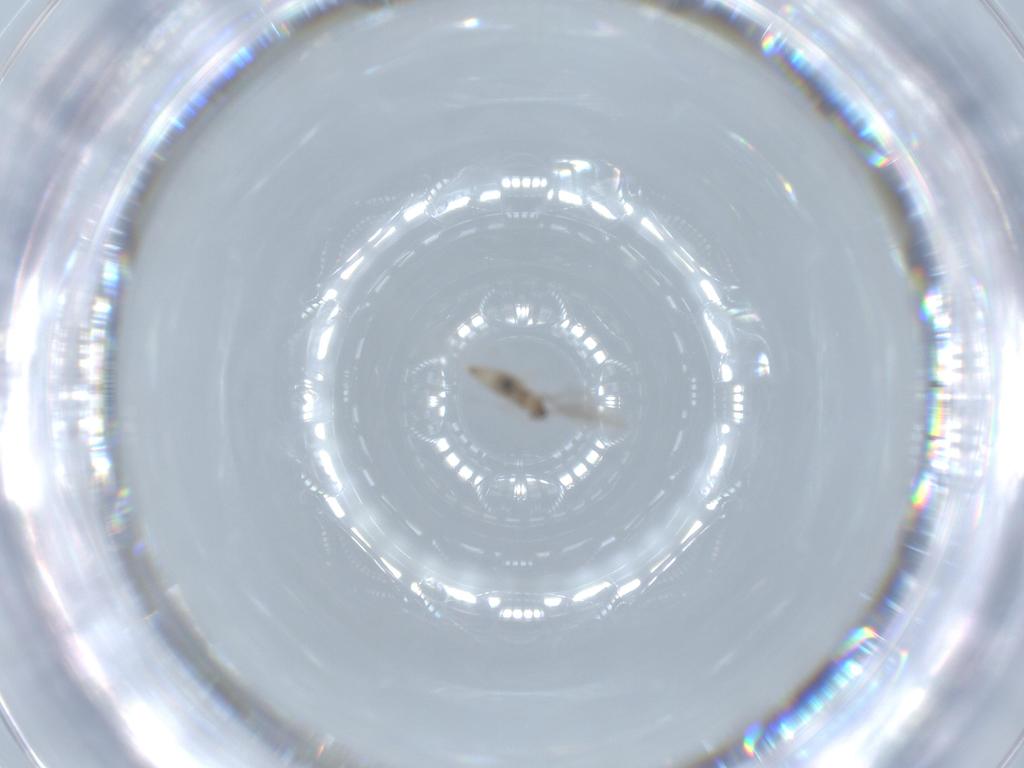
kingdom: Animalia
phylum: Arthropoda
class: Insecta
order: Diptera
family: Cecidomyiidae
